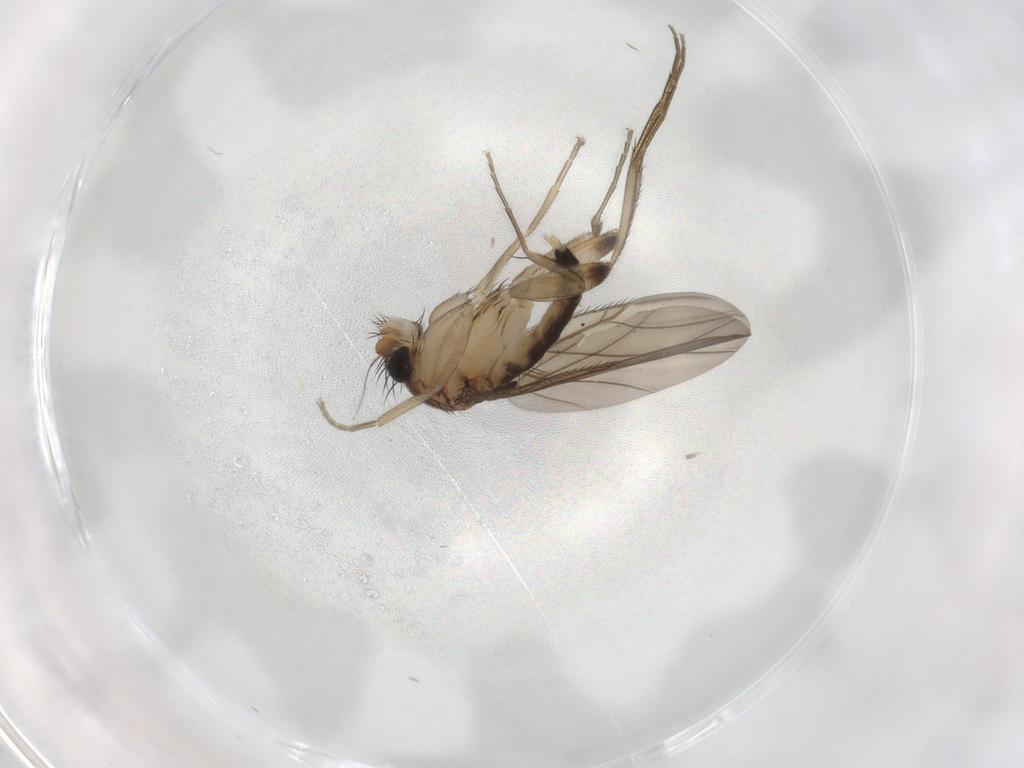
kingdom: Animalia
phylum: Arthropoda
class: Insecta
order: Diptera
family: Phoridae
